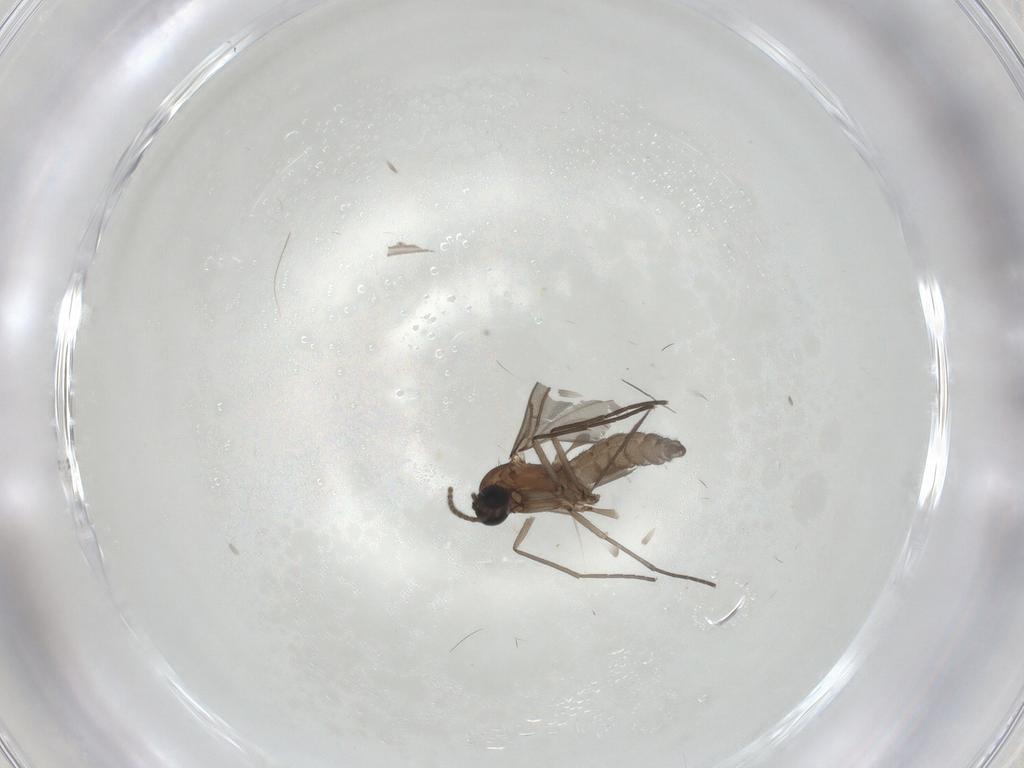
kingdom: Animalia
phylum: Arthropoda
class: Insecta
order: Diptera
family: Chironomidae
